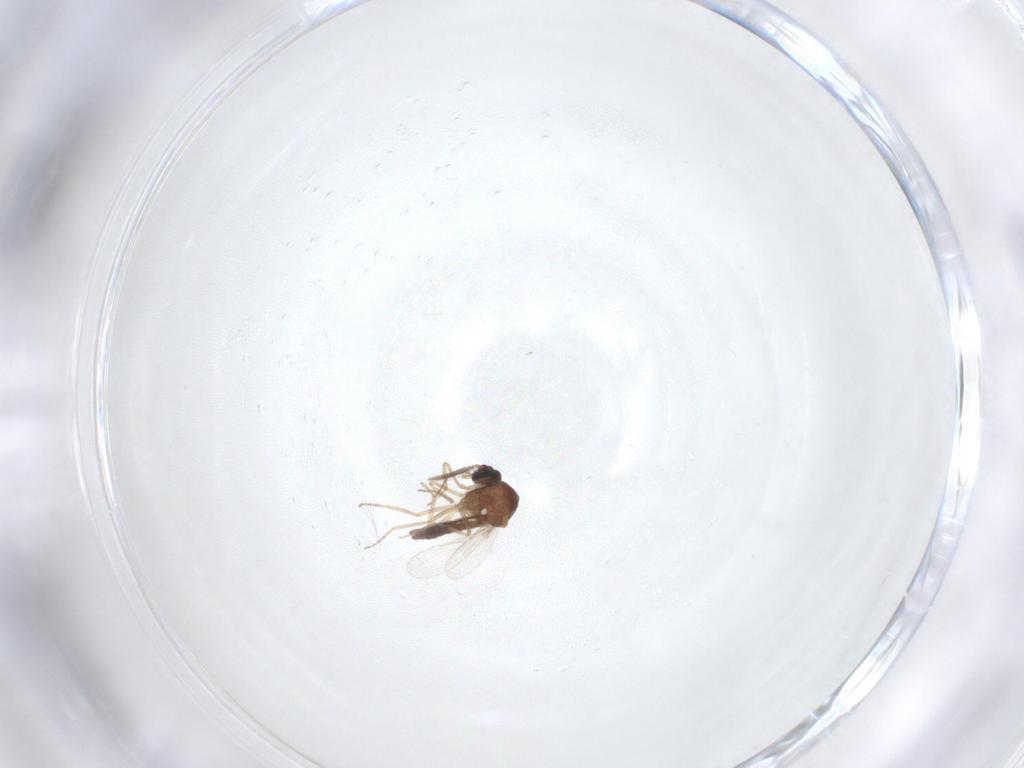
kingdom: Animalia
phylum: Arthropoda
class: Insecta
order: Diptera
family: Ceratopogonidae
